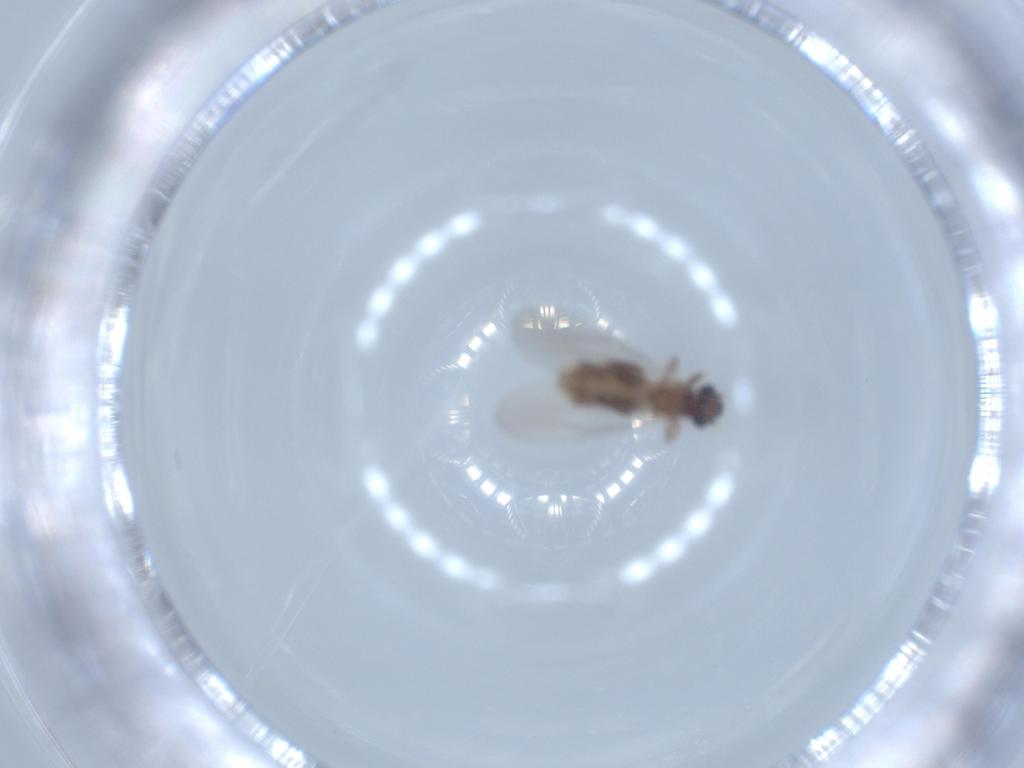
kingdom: Animalia
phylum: Arthropoda
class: Insecta
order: Psocodea
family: Liposcelididae
